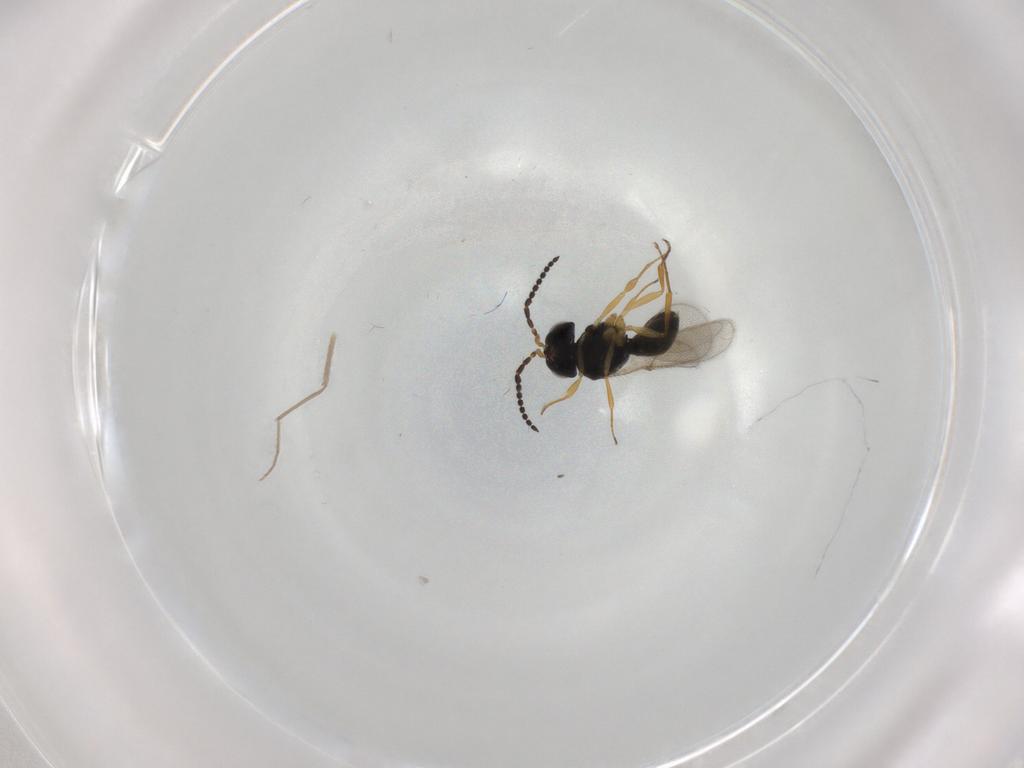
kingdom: Animalia
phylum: Arthropoda
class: Insecta
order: Hymenoptera
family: Scelionidae
